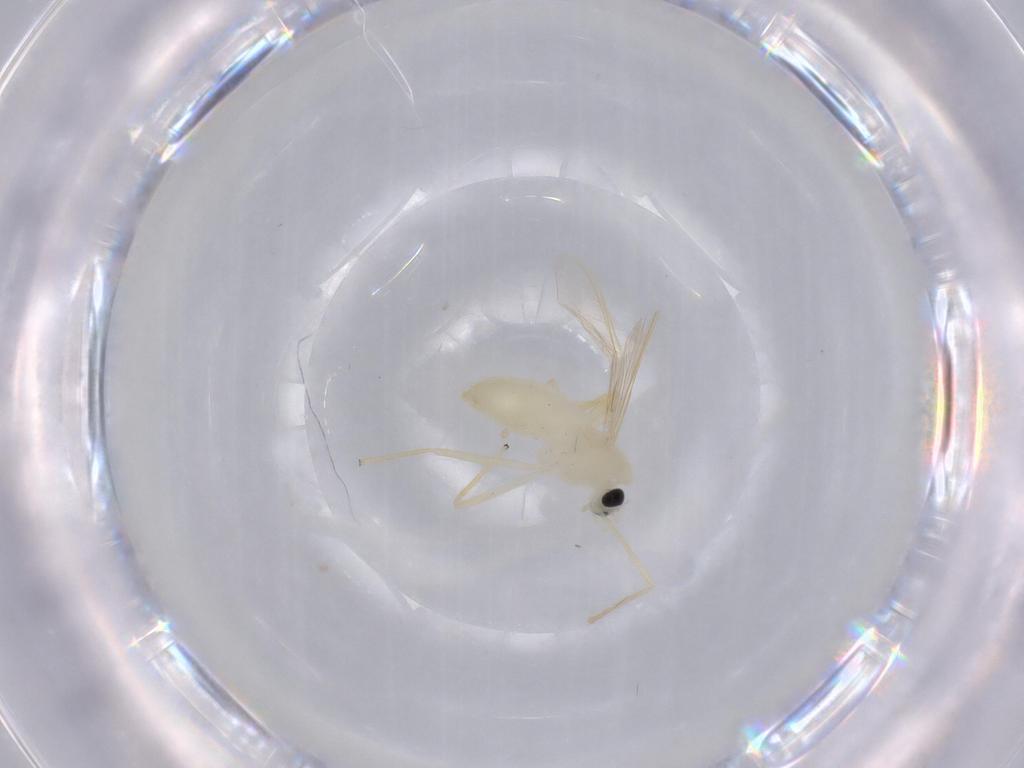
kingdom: Animalia
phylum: Arthropoda
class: Insecta
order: Diptera
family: Chironomidae
